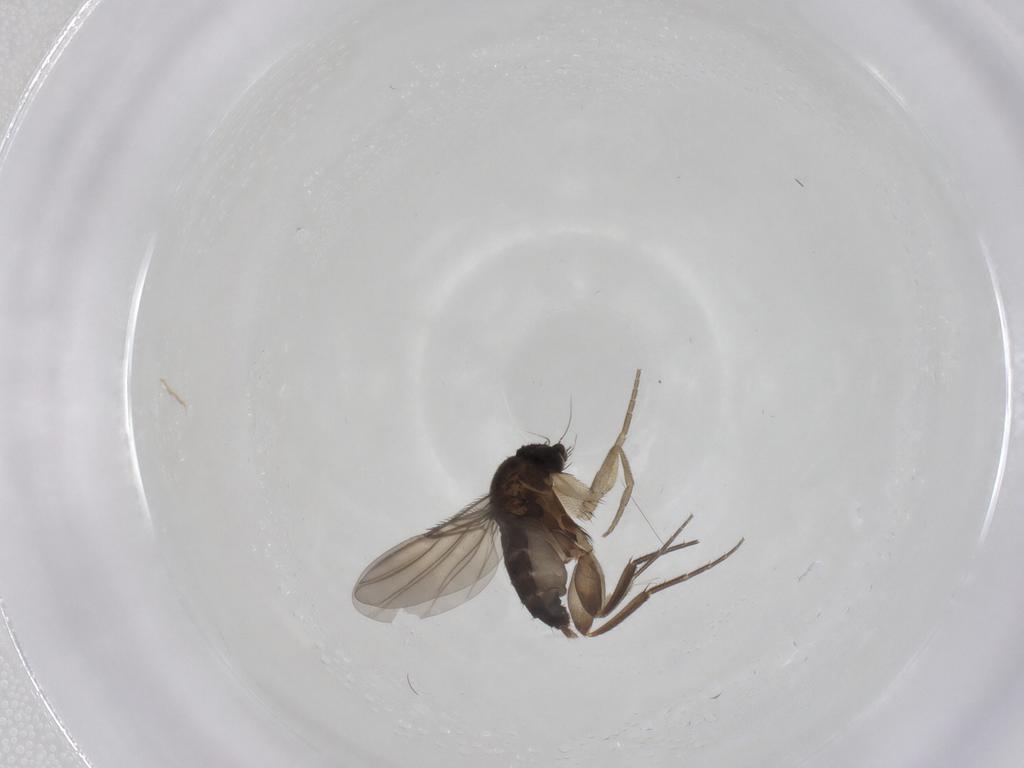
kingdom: Animalia
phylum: Arthropoda
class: Insecta
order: Diptera
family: Phoridae
